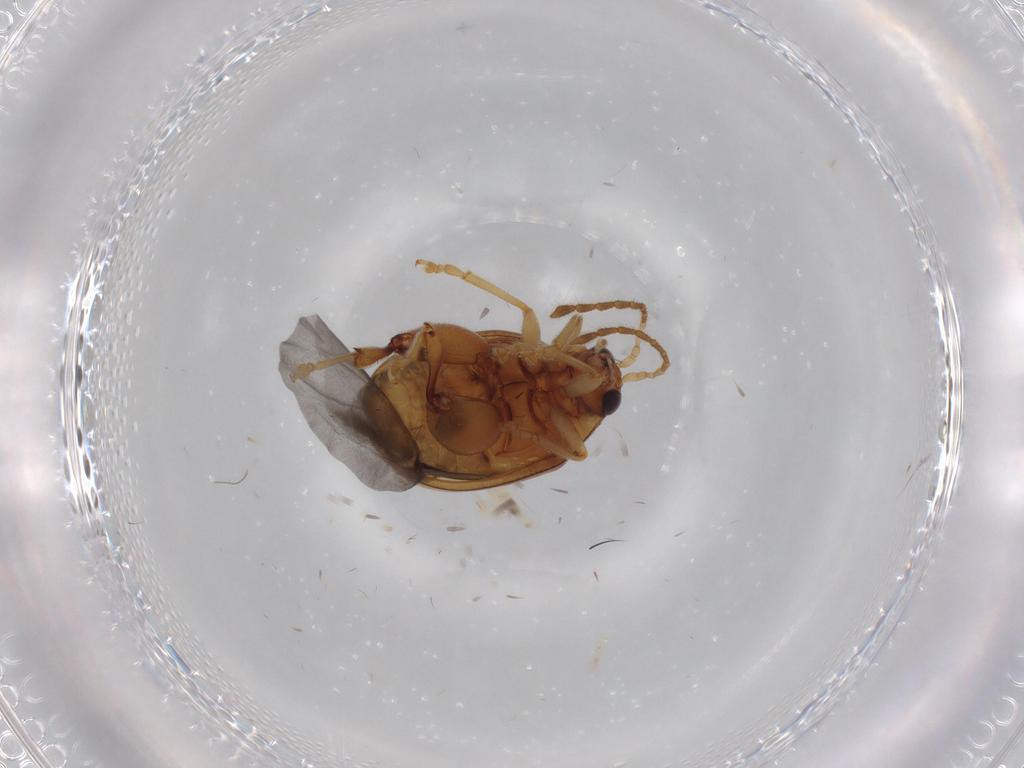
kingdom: Animalia
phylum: Arthropoda
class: Insecta
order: Coleoptera
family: Chrysomelidae
